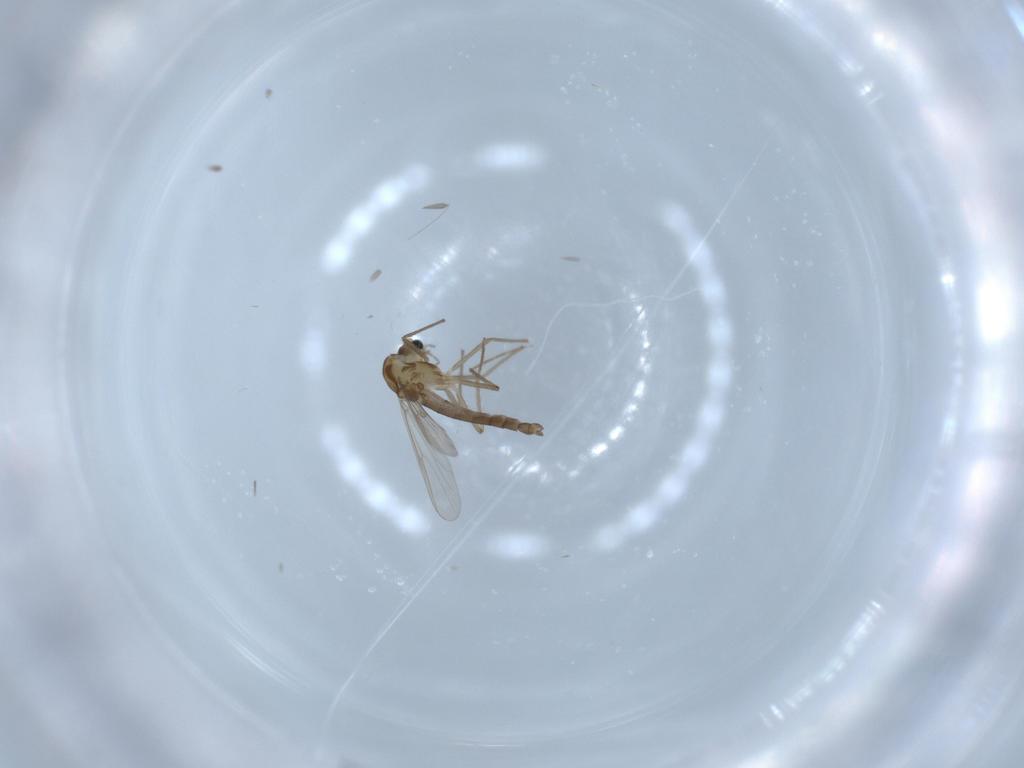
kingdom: Animalia
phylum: Arthropoda
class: Insecta
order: Diptera
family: Chironomidae
